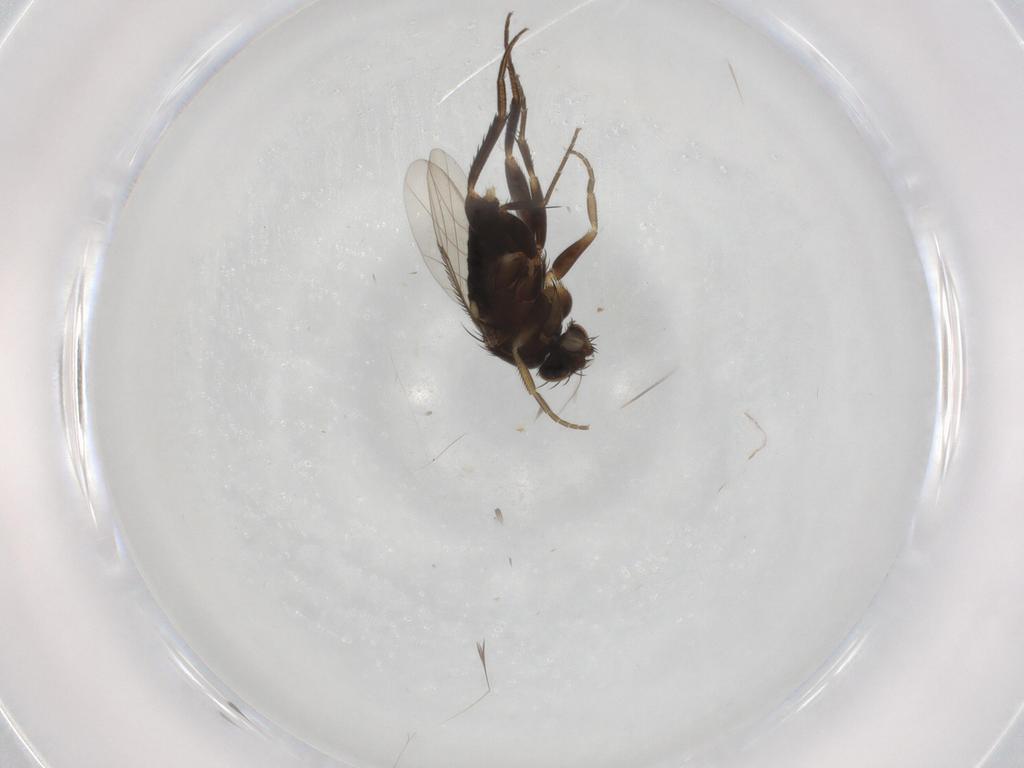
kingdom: Animalia
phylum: Arthropoda
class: Insecta
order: Diptera
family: Phoridae
